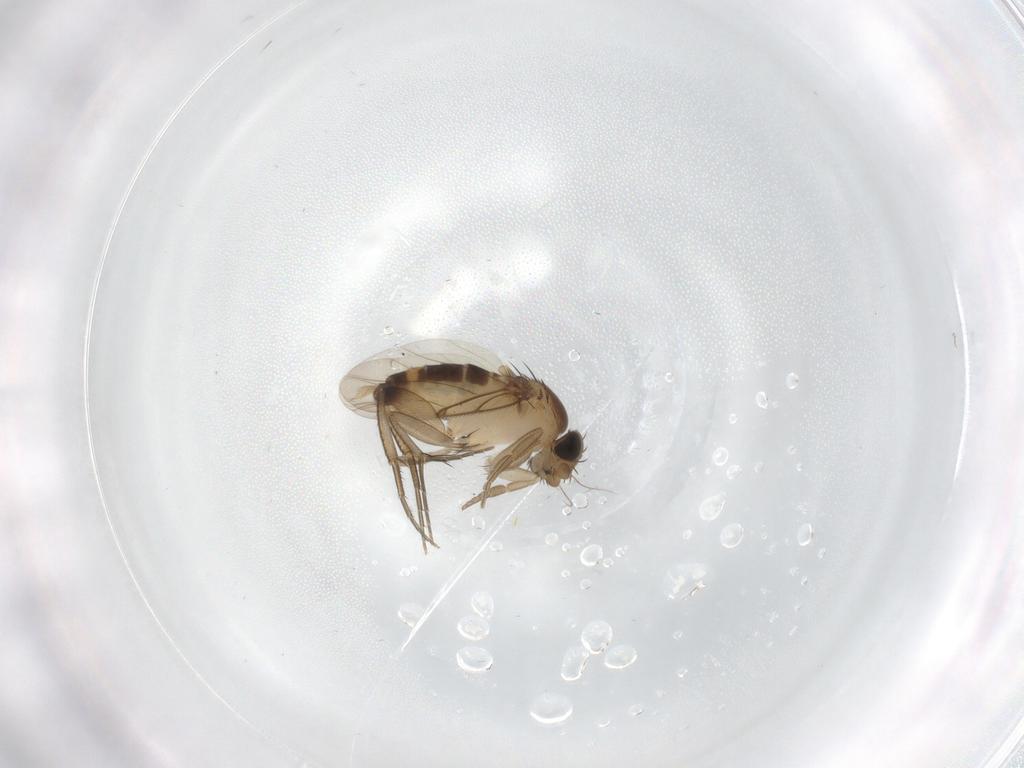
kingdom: Animalia
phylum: Arthropoda
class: Insecta
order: Diptera
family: Phoridae
